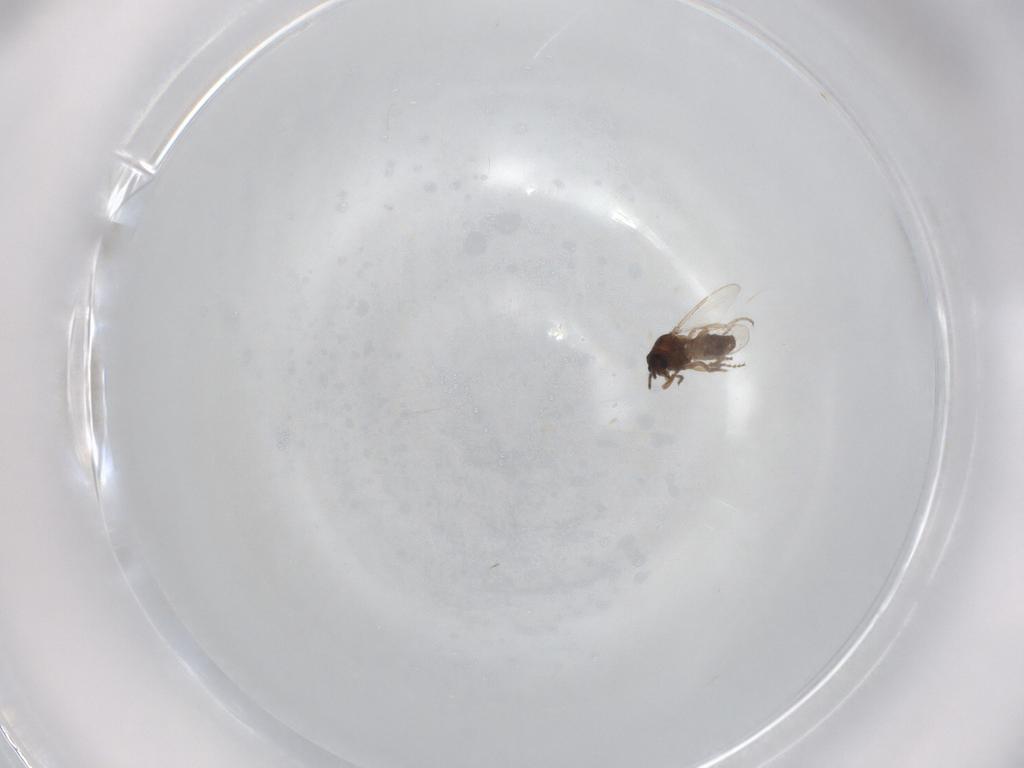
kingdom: Animalia
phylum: Arthropoda
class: Insecta
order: Diptera
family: Ceratopogonidae
